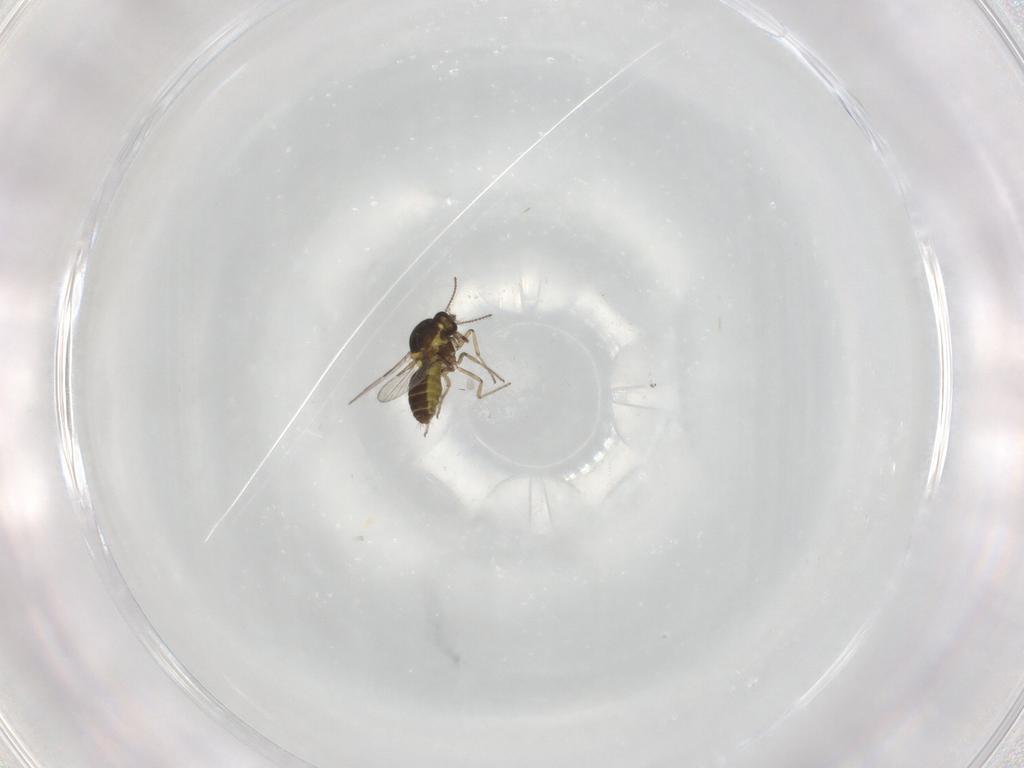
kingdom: Animalia
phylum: Arthropoda
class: Insecta
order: Diptera
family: Ceratopogonidae
